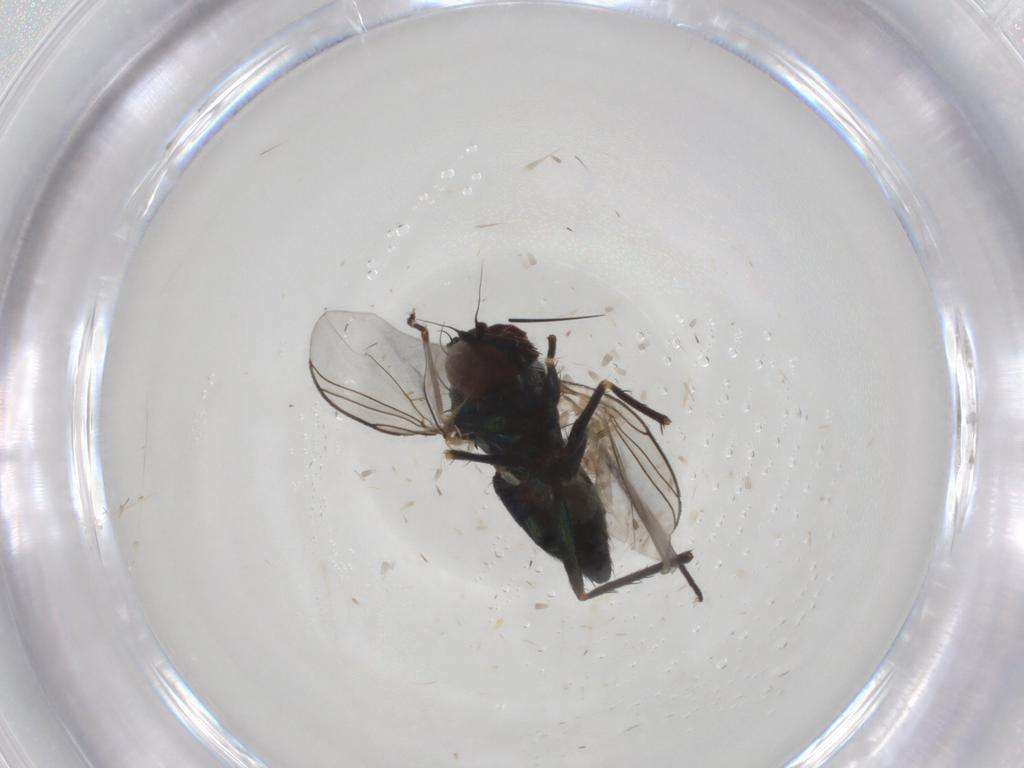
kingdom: Animalia
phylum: Arthropoda
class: Insecta
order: Diptera
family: Dolichopodidae
